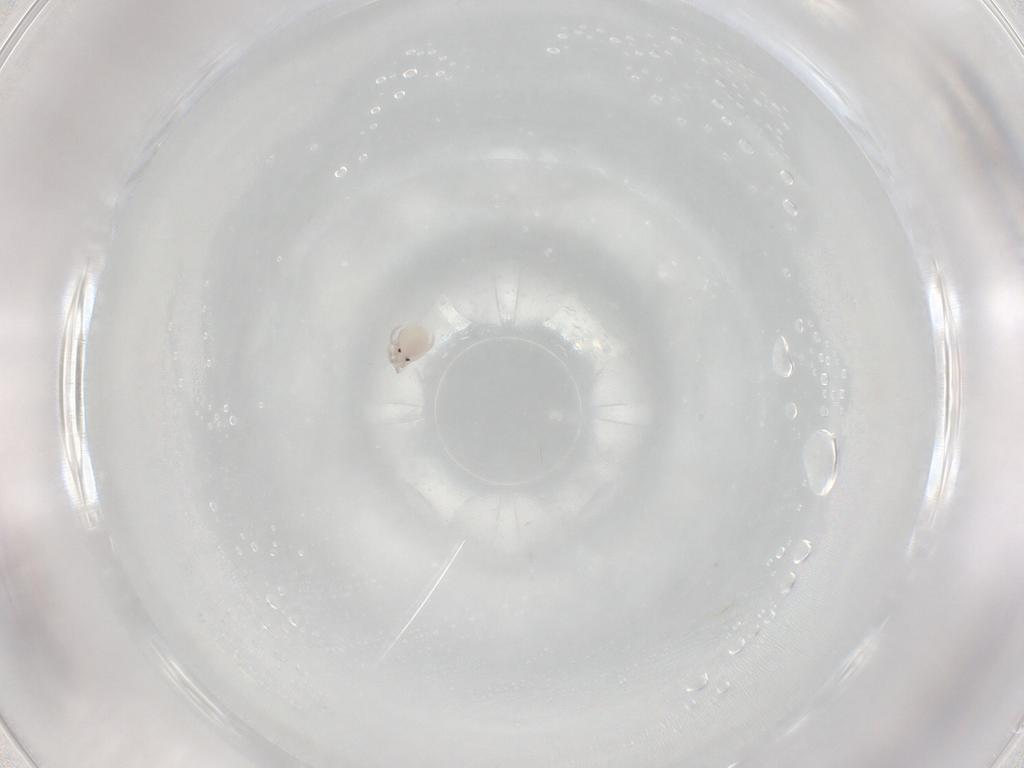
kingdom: Animalia
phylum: Arthropoda
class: Arachnida
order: Trombidiformes
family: Lebertiidae
